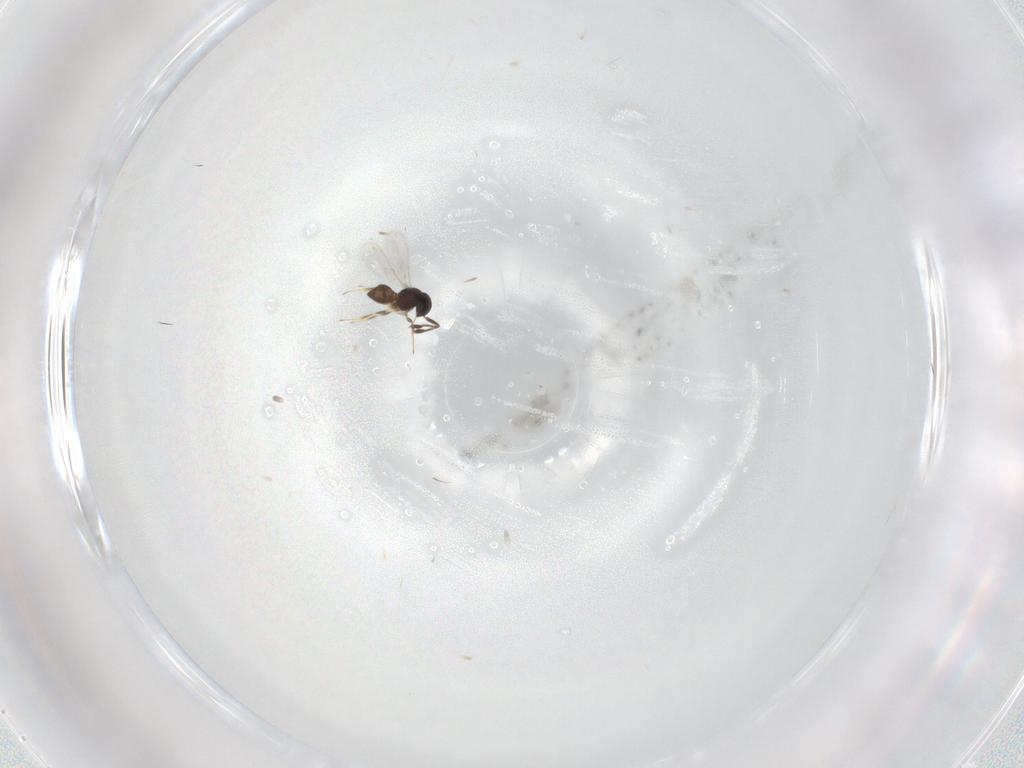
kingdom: Animalia
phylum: Arthropoda
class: Insecta
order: Hymenoptera
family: Scelionidae
